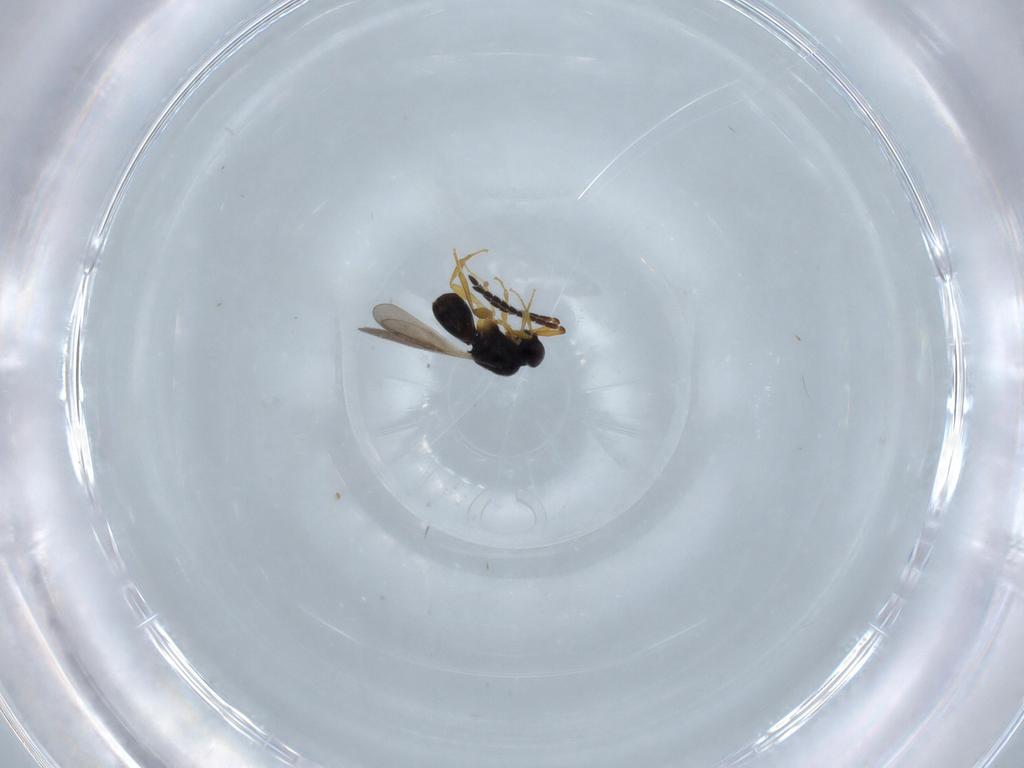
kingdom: Animalia
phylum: Arthropoda
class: Insecta
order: Hymenoptera
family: Ceraphronidae
